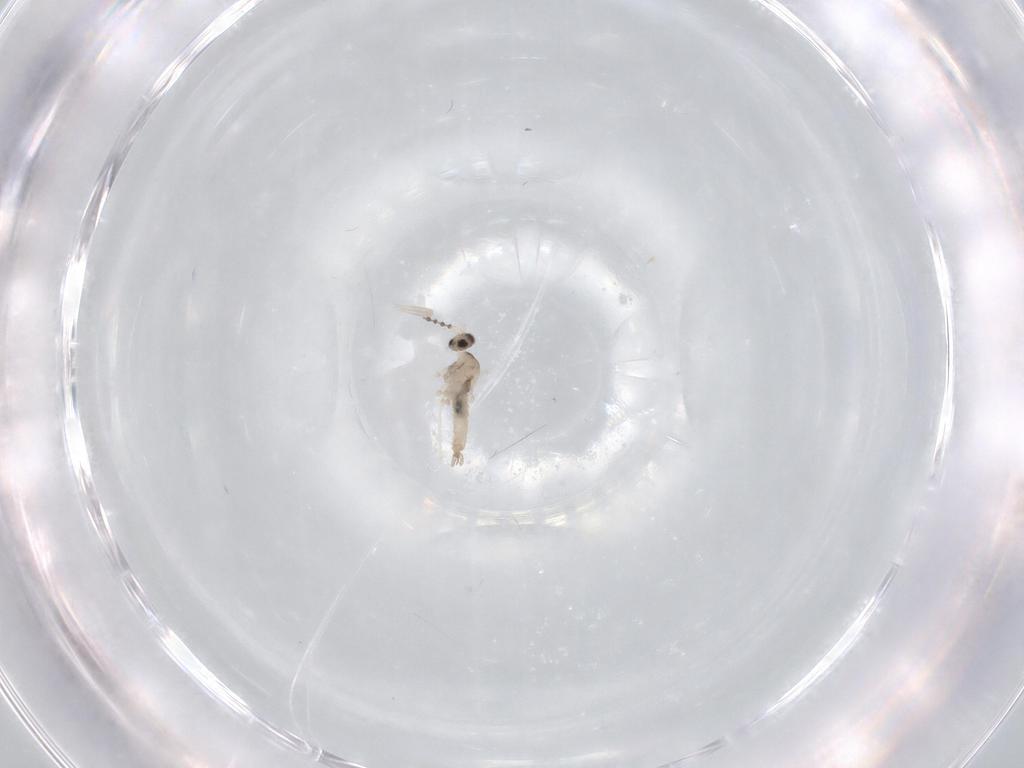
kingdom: Animalia
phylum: Arthropoda
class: Insecta
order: Diptera
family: Cecidomyiidae
